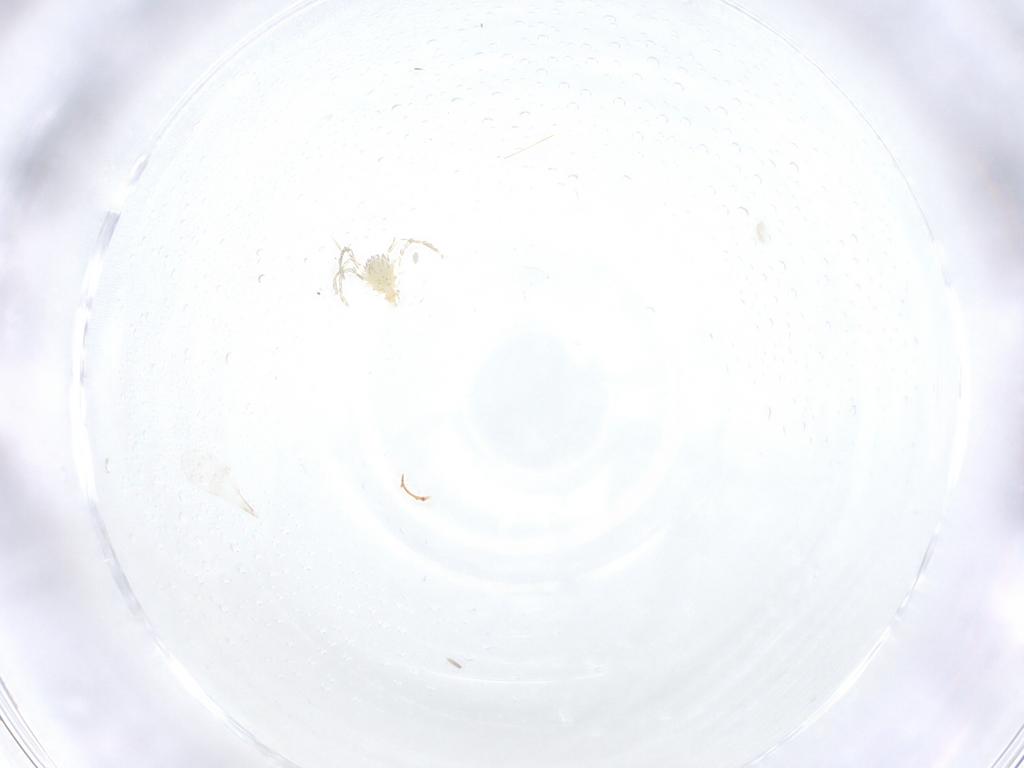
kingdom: Animalia
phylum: Arthropoda
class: Arachnida
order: Trombidiformes
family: Erythraeidae
